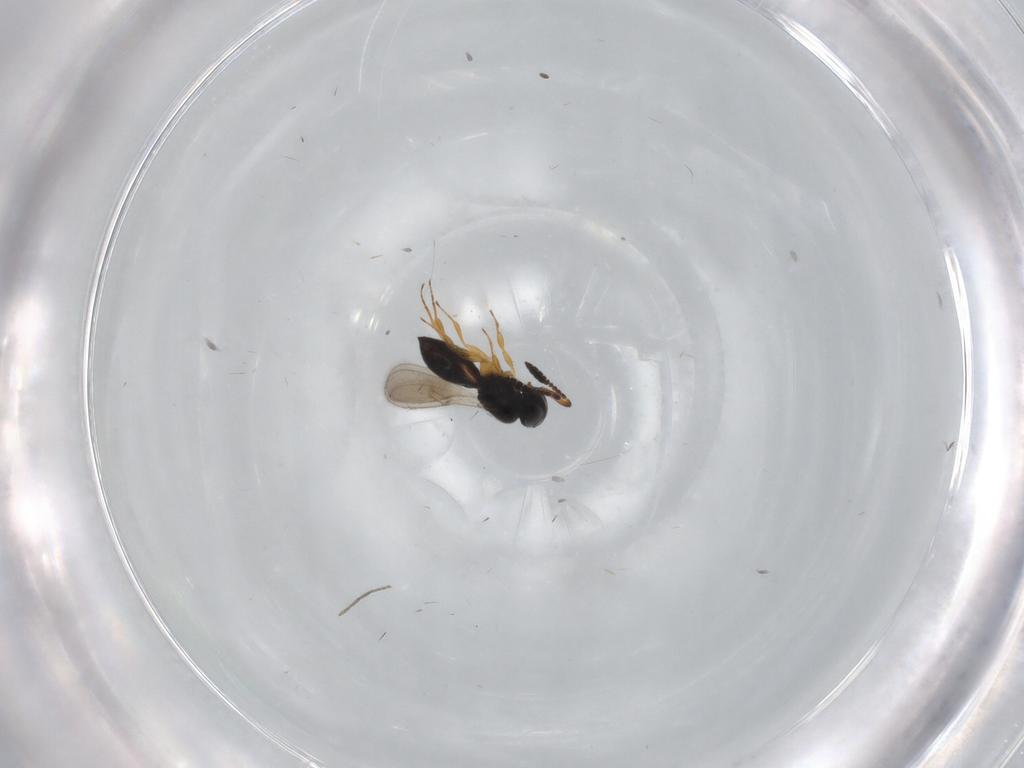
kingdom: Animalia
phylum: Arthropoda
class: Insecta
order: Hymenoptera
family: Scelionidae
